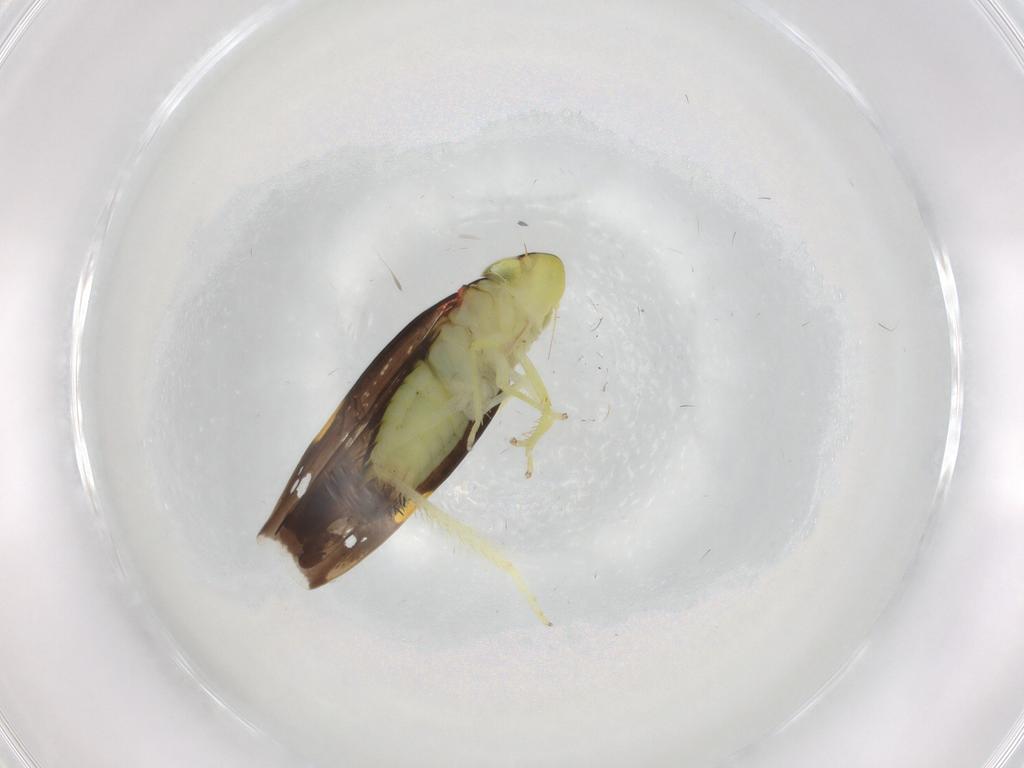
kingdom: Animalia
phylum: Arthropoda
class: Insecta
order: Hemiptera
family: Cicadellidae
